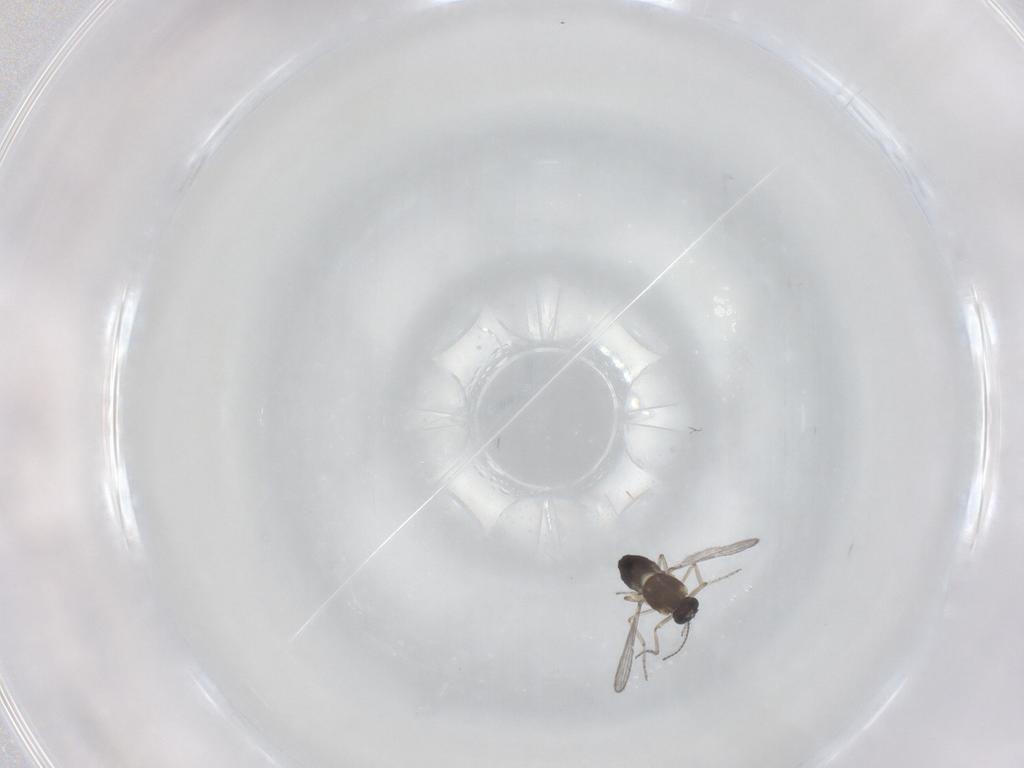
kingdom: Animalia
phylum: Arthropoda
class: Insecta
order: Diptera
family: Ceratopogonidae
